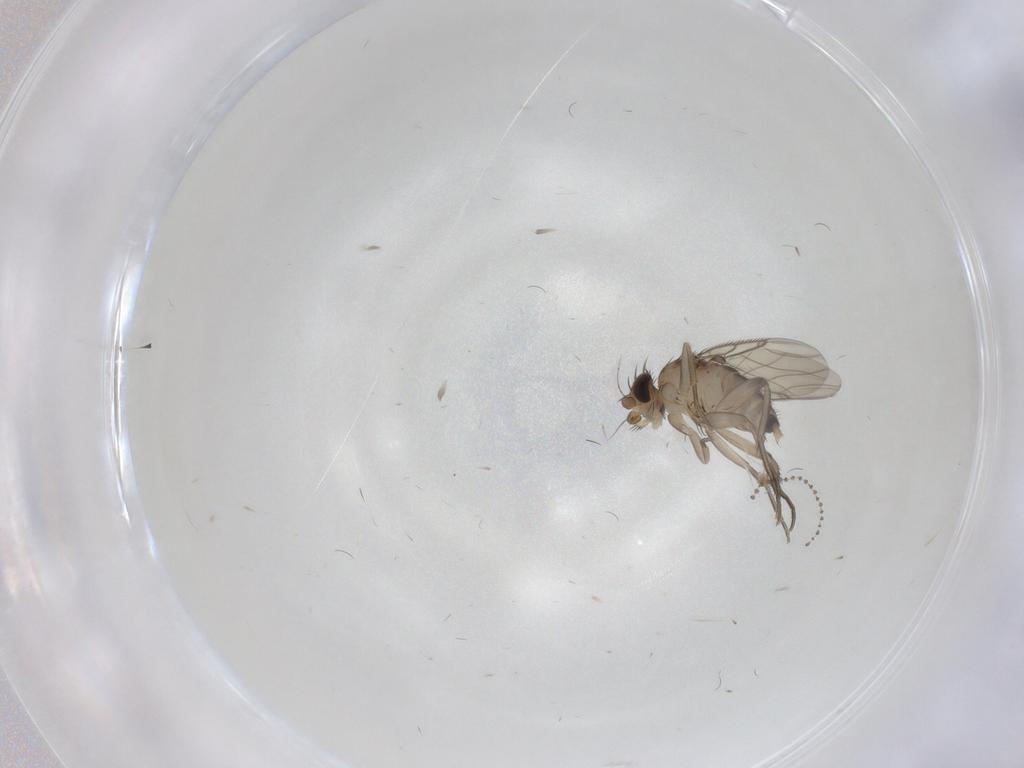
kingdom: Animalia
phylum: Arthropoda
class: Insecta
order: Diptera
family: Cecidomyiidae
